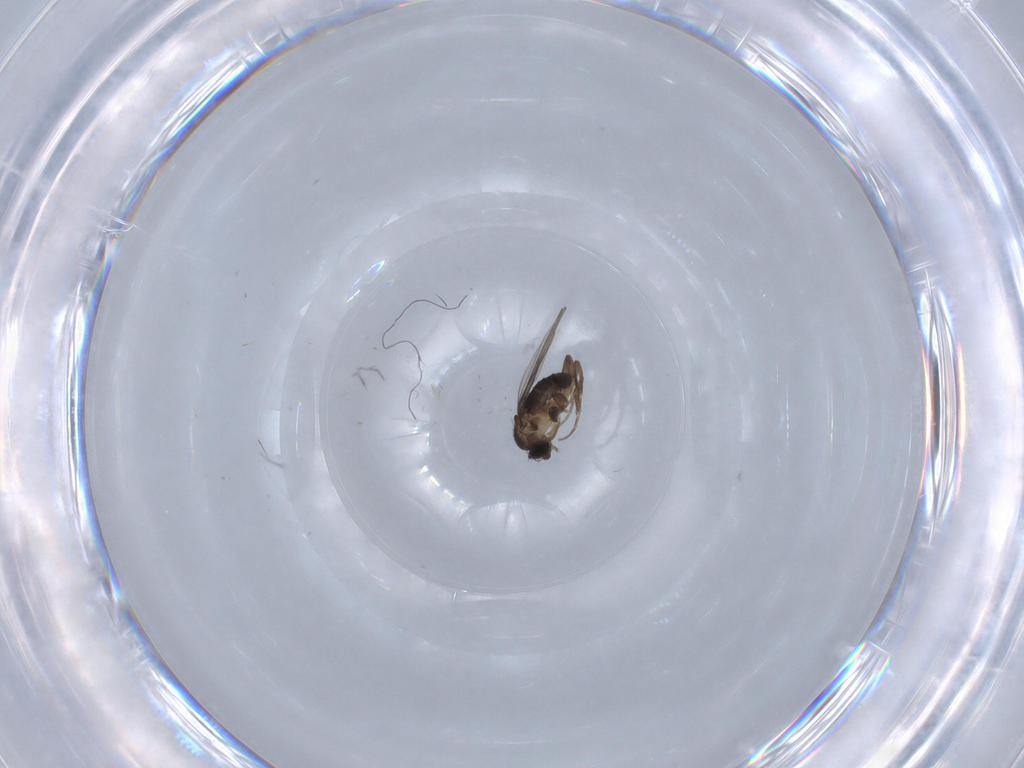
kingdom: Animalia
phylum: Arthropoda
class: Insecta
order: Diptera
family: Phoridae
